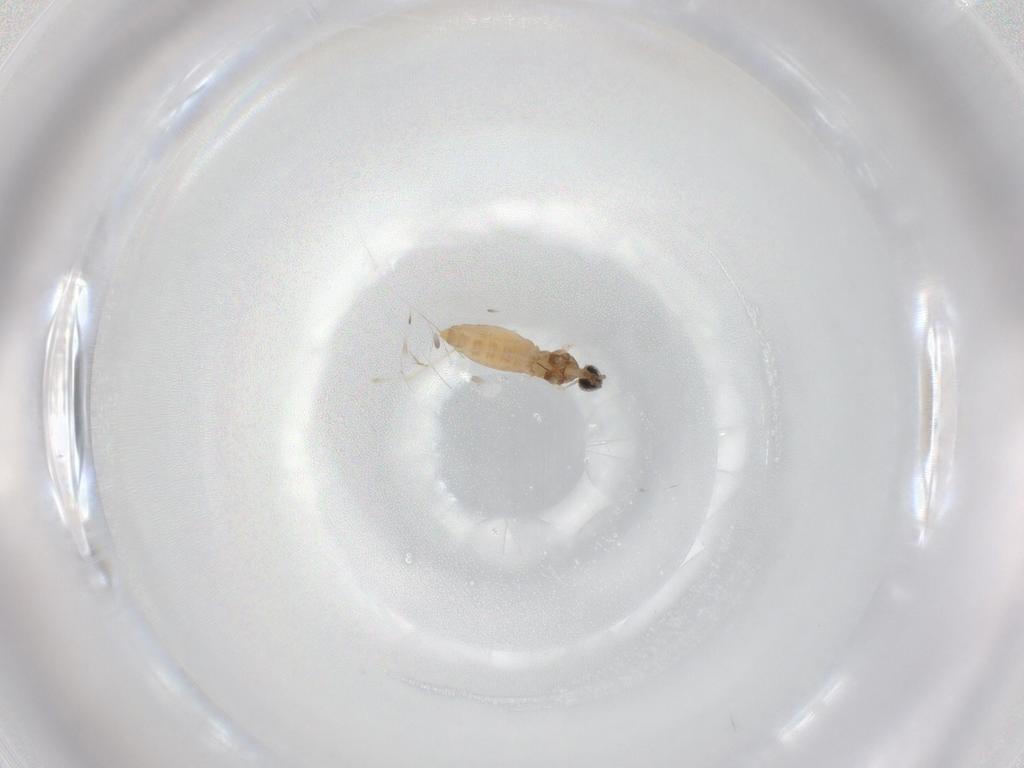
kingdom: Animalia
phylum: Arthropoda
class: Insecta
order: Diptera
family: Cecidomyiidae
